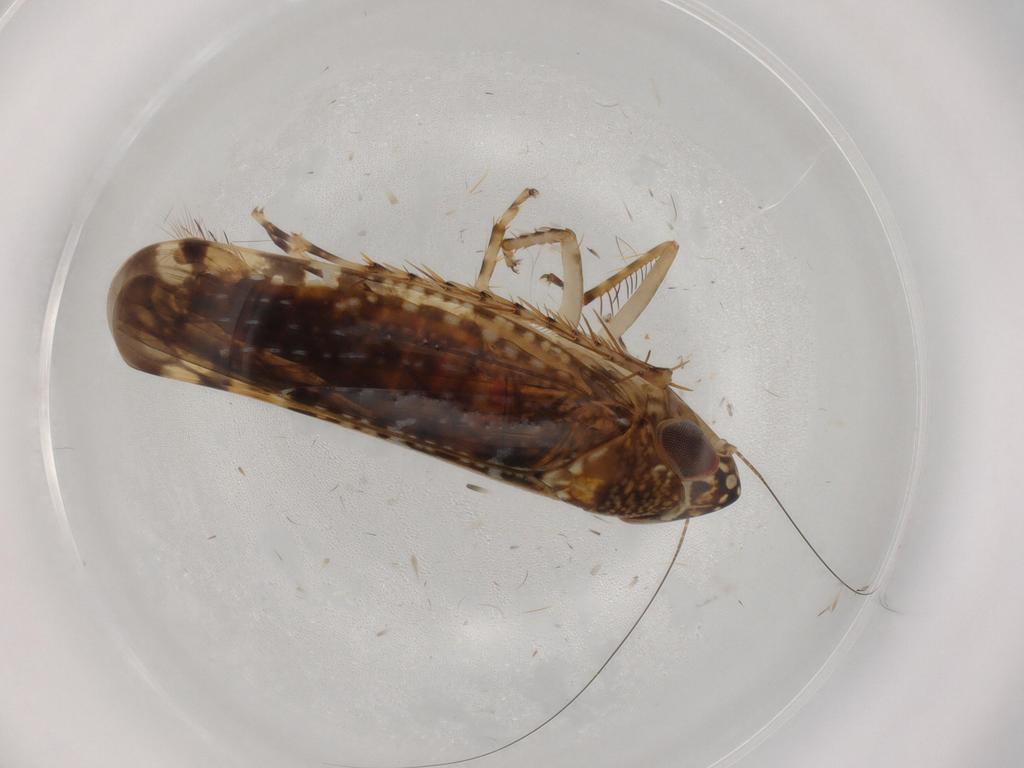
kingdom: Animalia
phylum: Arthropoda
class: Insecta
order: Hemiptera
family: Cicadellidae
